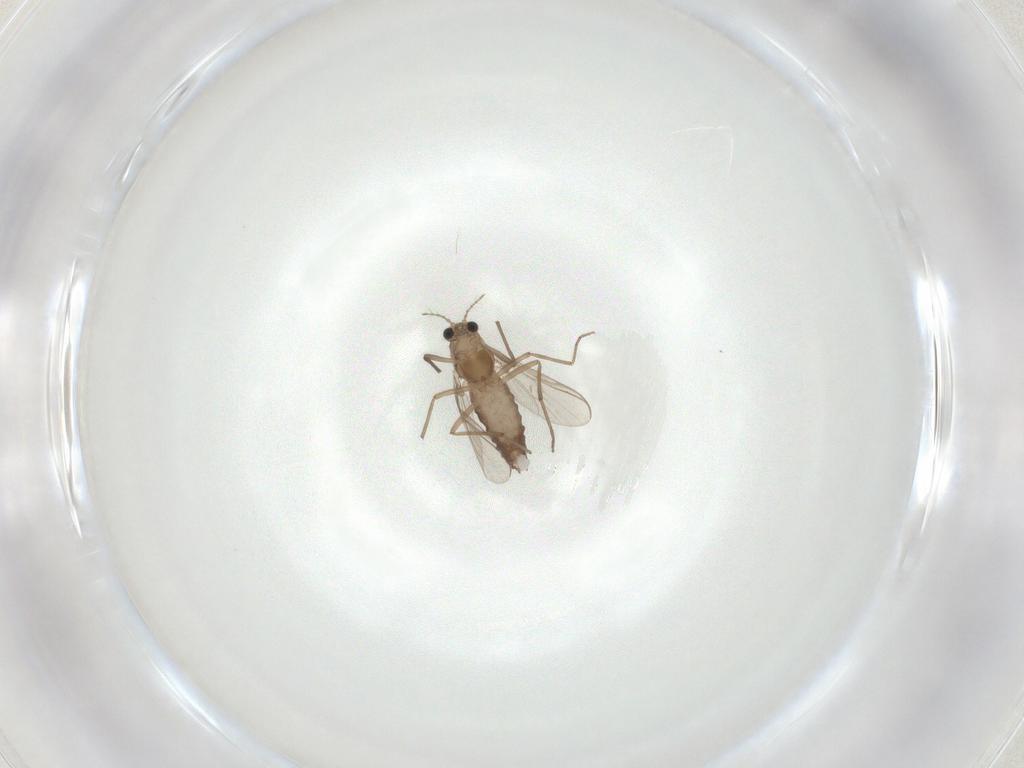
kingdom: Animalia
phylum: Arthropoda
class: Insecta
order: Diptera
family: Chironomidae
